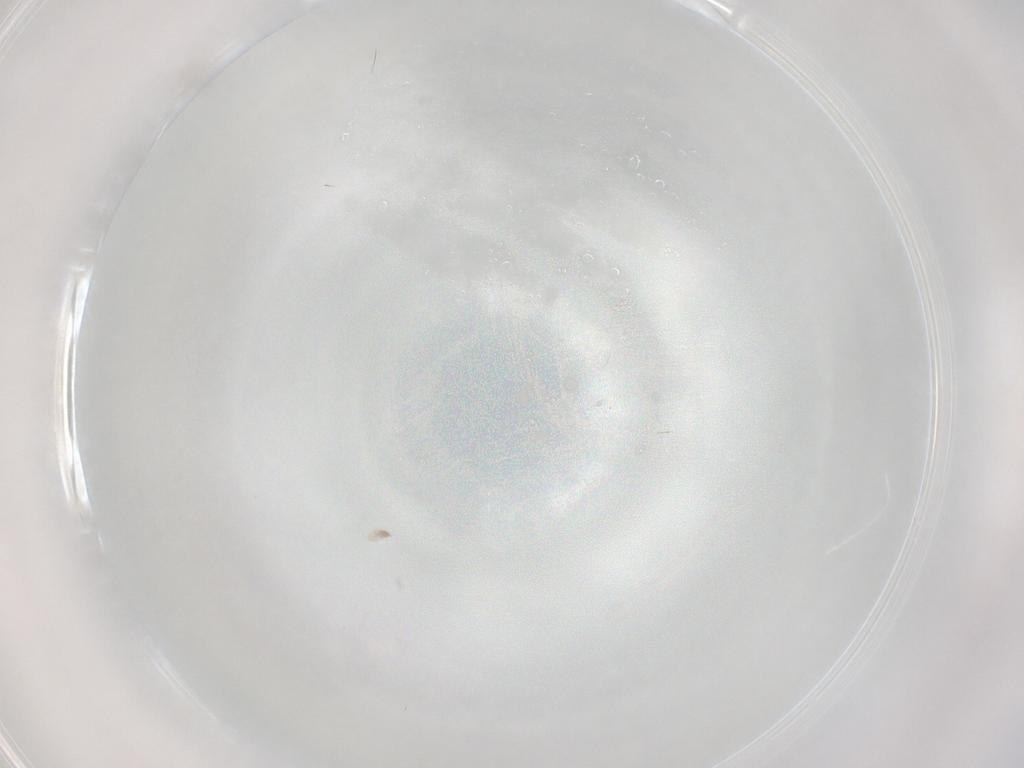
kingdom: Animalia
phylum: Arthropoda
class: Insecta
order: Diptera
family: Cecidomyiidae
